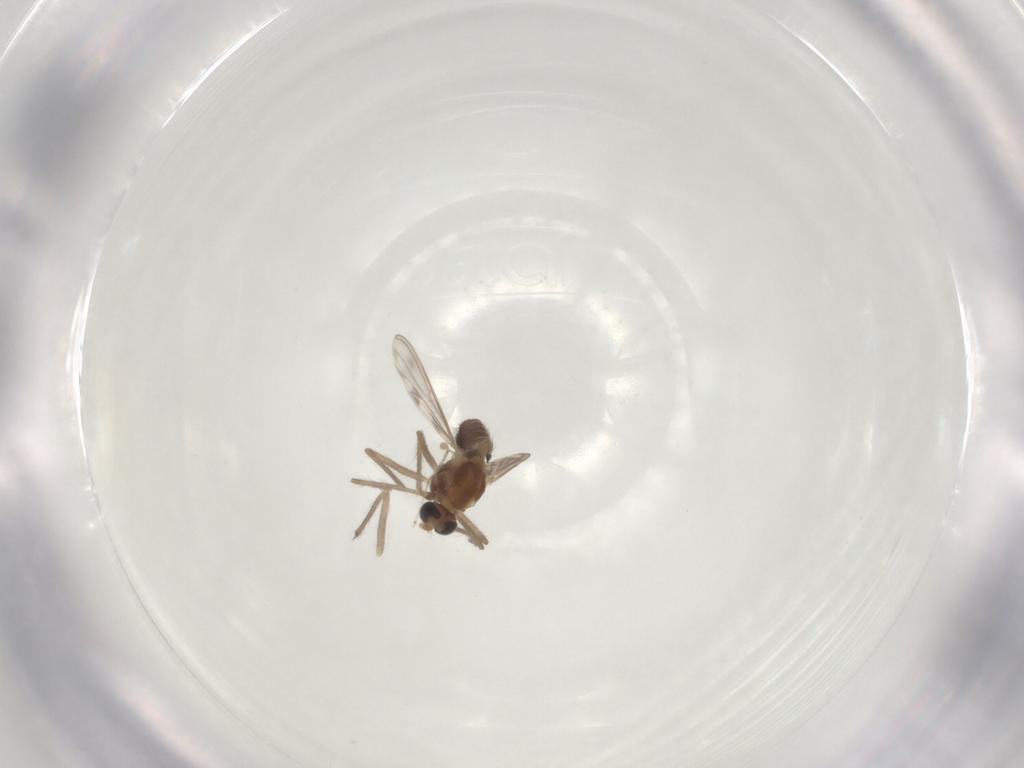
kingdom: Animalia
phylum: Arthropoda
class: Insecta
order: Diptera
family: Chironomidae
